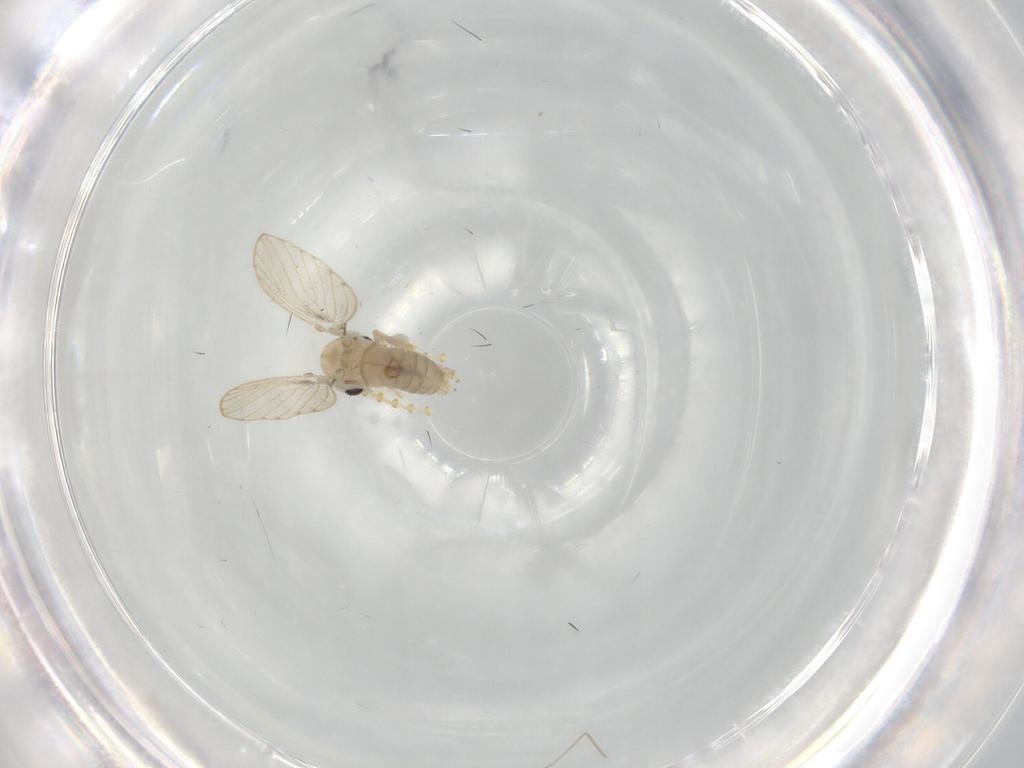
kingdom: Animalia
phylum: Arthropoda
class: Insecta
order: Diptera
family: Psychodidae
